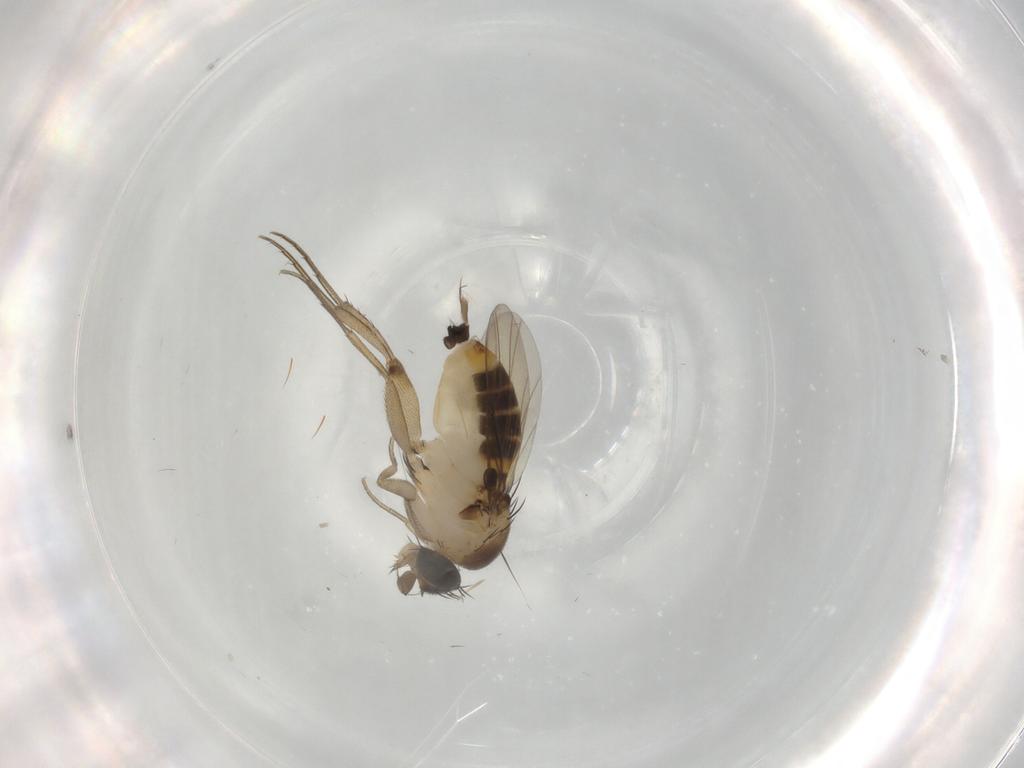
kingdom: Animalia
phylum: Arthropoda
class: Insecta
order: Diptera
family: Phoridae
